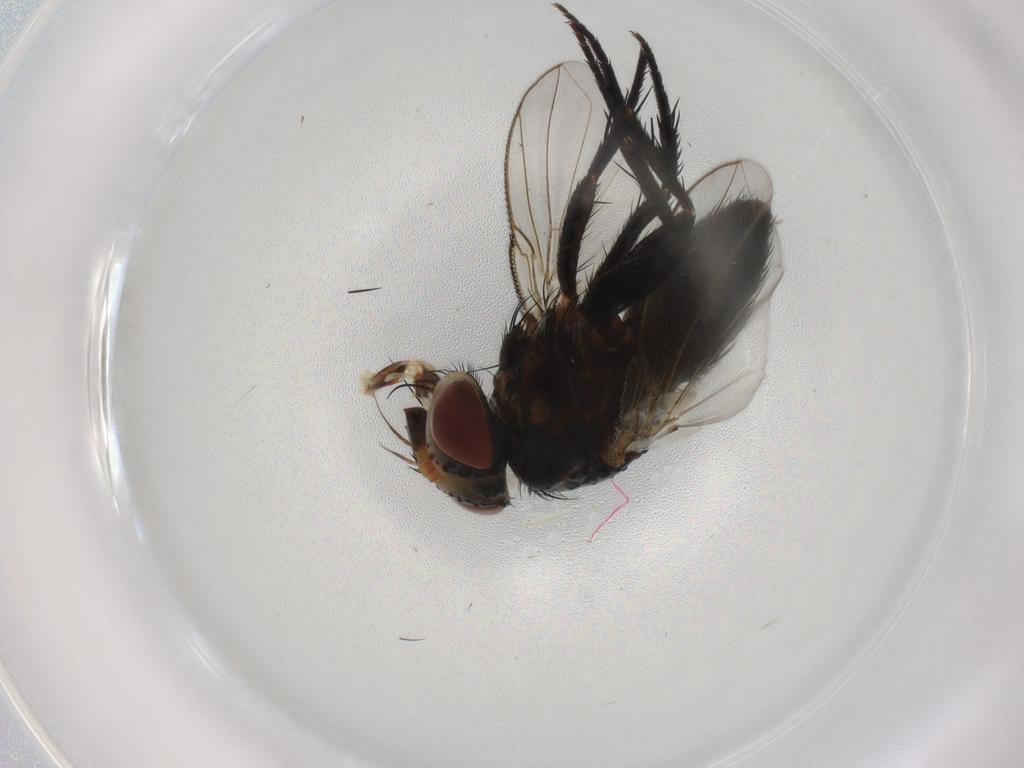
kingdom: Animalia
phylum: Arthropoda
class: Insecta
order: Diptera
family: Tachinidae
